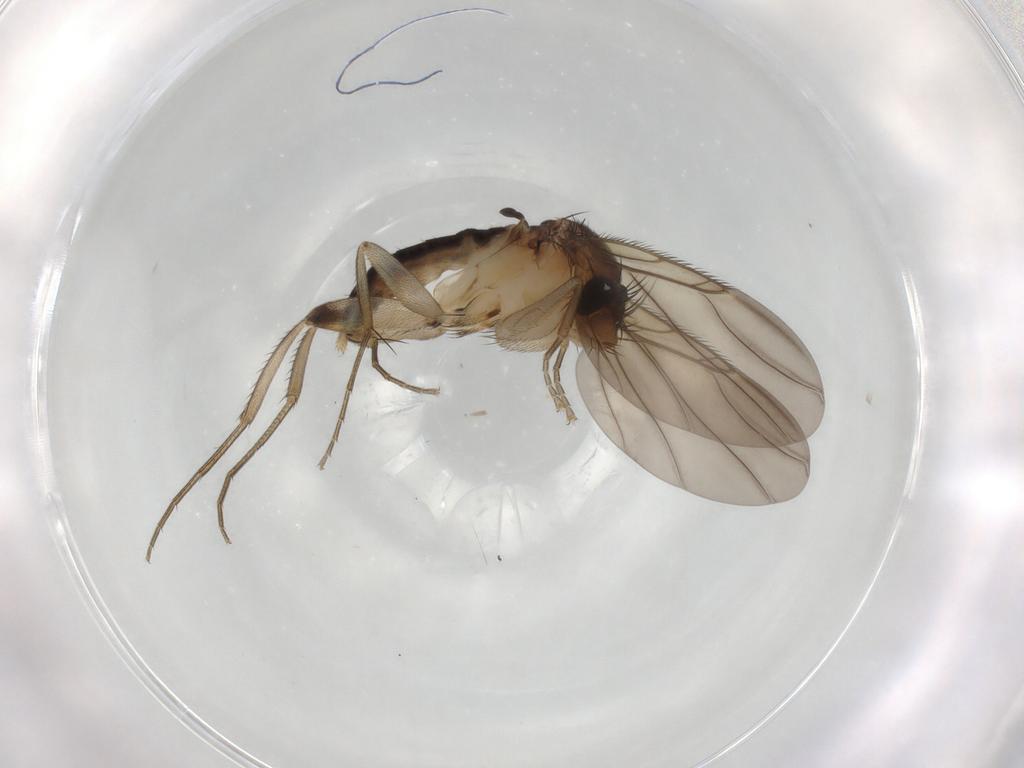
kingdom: Animalia
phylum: Arthropoda
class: Insecta
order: Diptera
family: Phoridae
